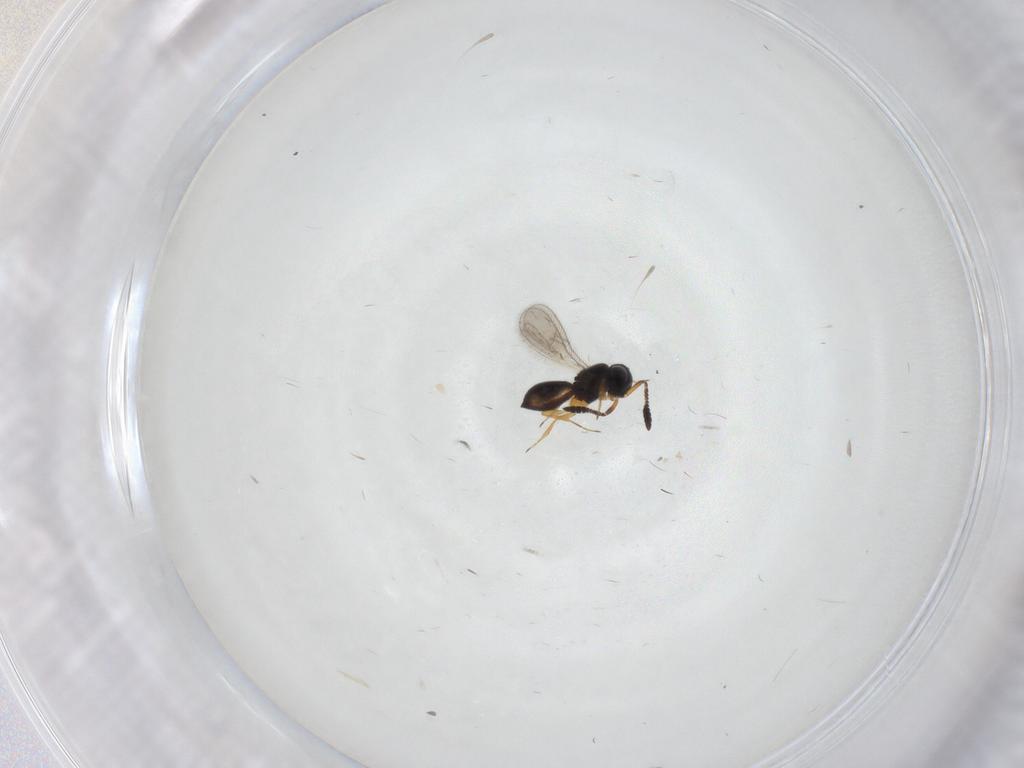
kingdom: Animalia
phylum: Arthropoda
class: Insecta
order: Hymenoptera
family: Scelionidae
